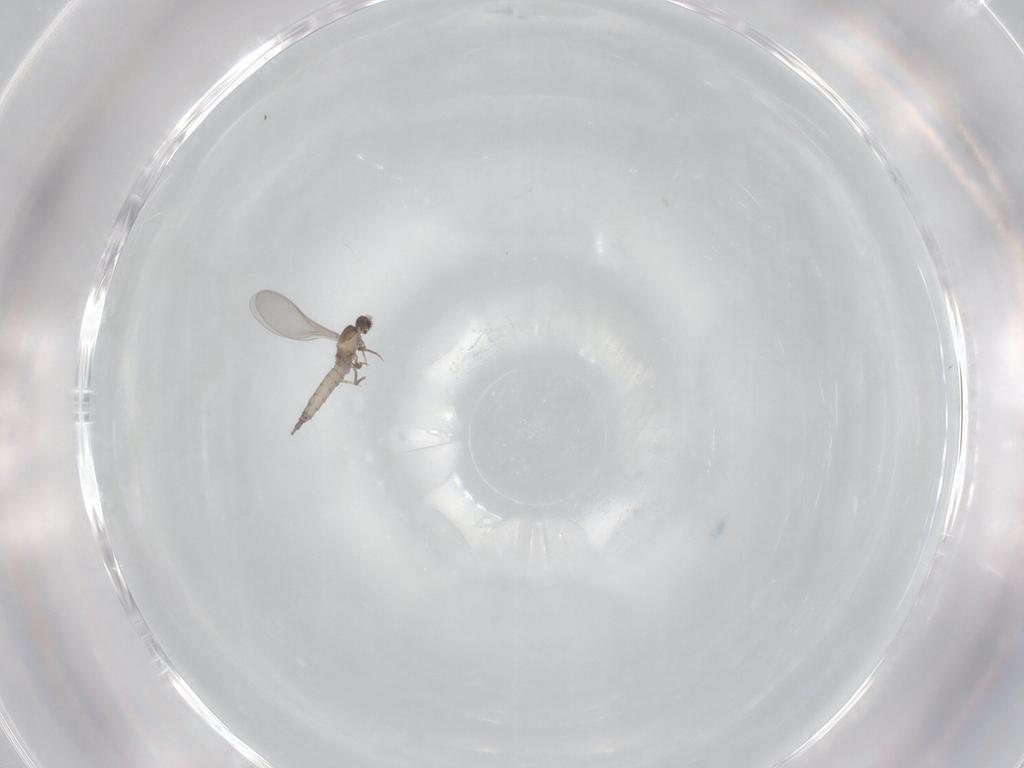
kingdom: Animalia
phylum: Arthropoda
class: Insecta
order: Diptera
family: Cecidomyiidae
